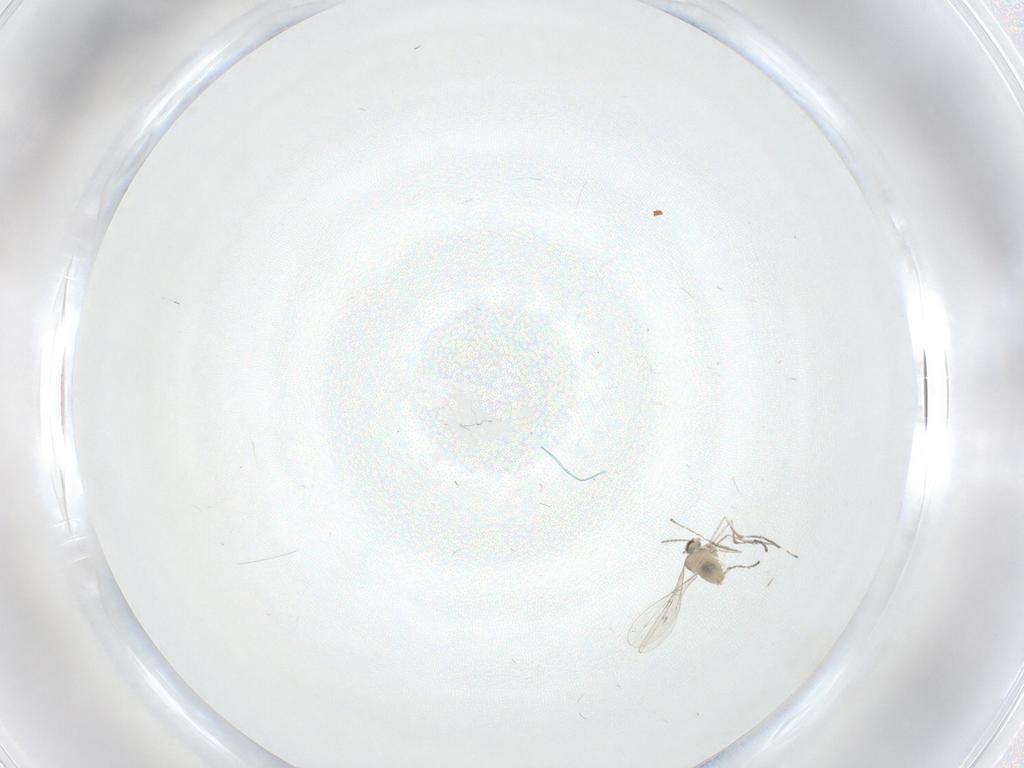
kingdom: Animalia
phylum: Arthropoda
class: Insecta
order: Diptera
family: Cecidomyiidae
